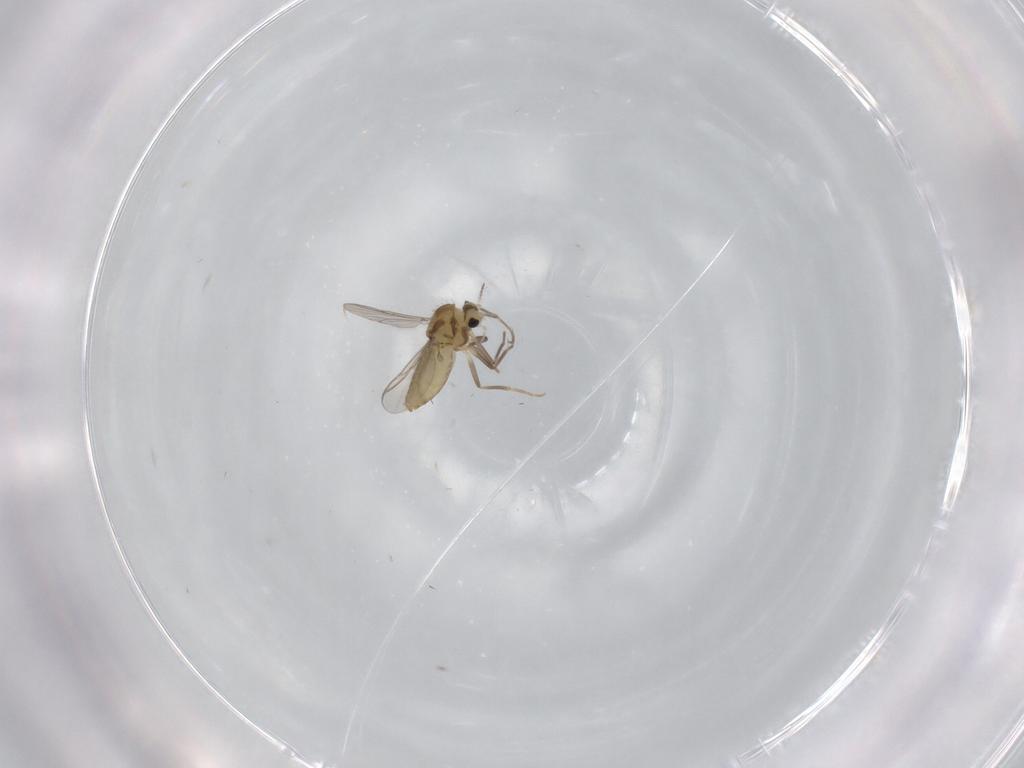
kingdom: Animalia
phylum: Arthropoda
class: Insecta
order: Diptera
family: Chironomidae
